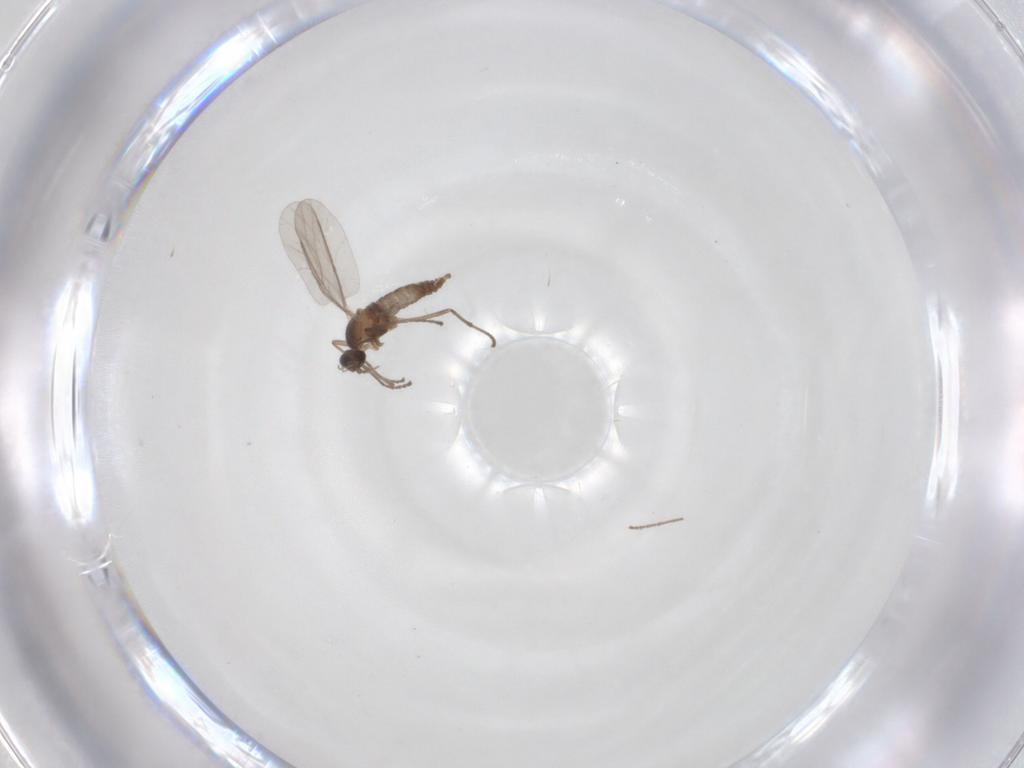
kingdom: Animalia
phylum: Arthropoda
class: Insecta
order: Diptera
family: Cecidomyiidae
